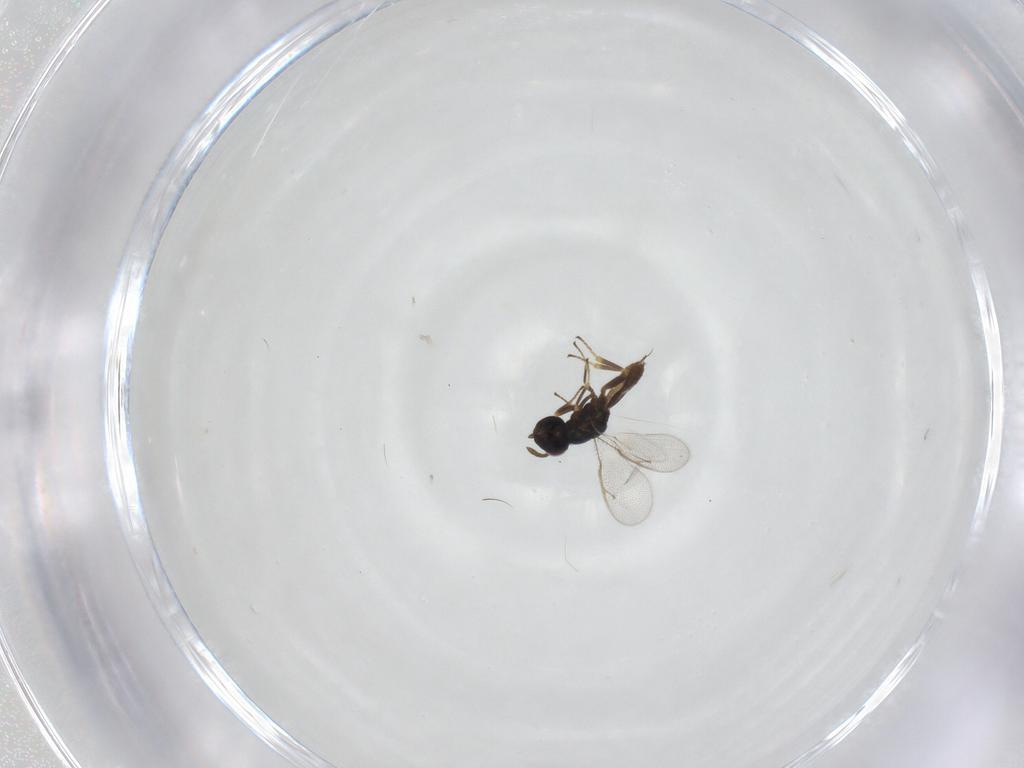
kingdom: Animalia
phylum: Arthropoda
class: Insecta
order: Hymenoptera
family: Pteromalidae
